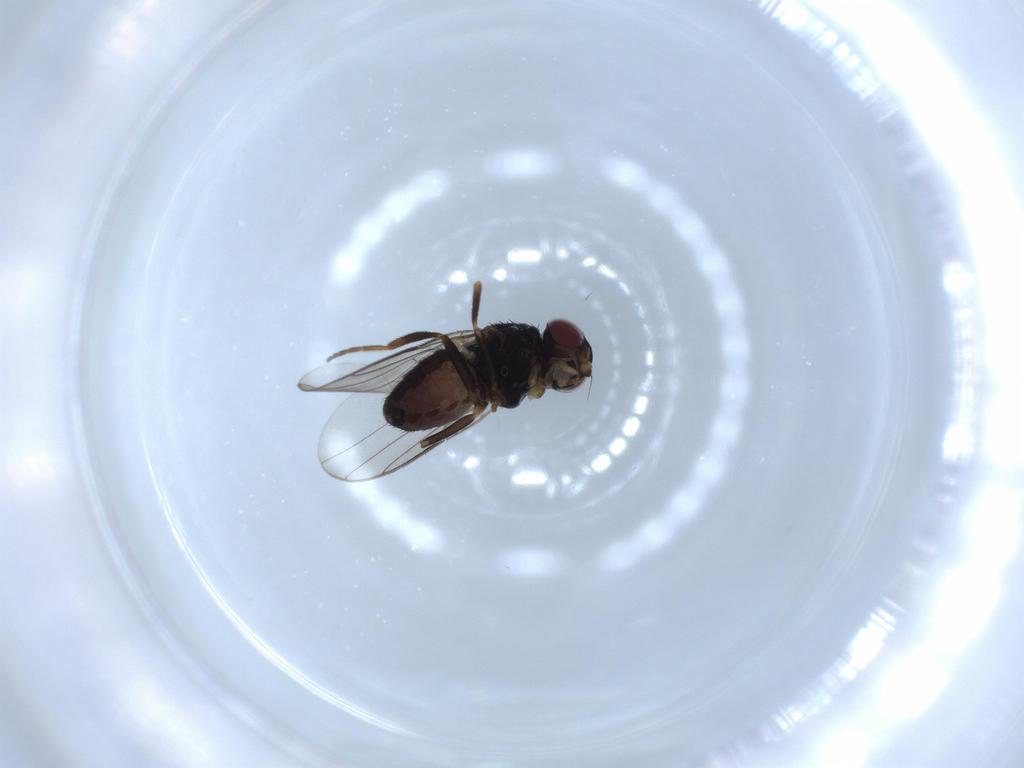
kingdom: Animalia
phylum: Arthropoda
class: Insecta
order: Diptera
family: Chloropidae
